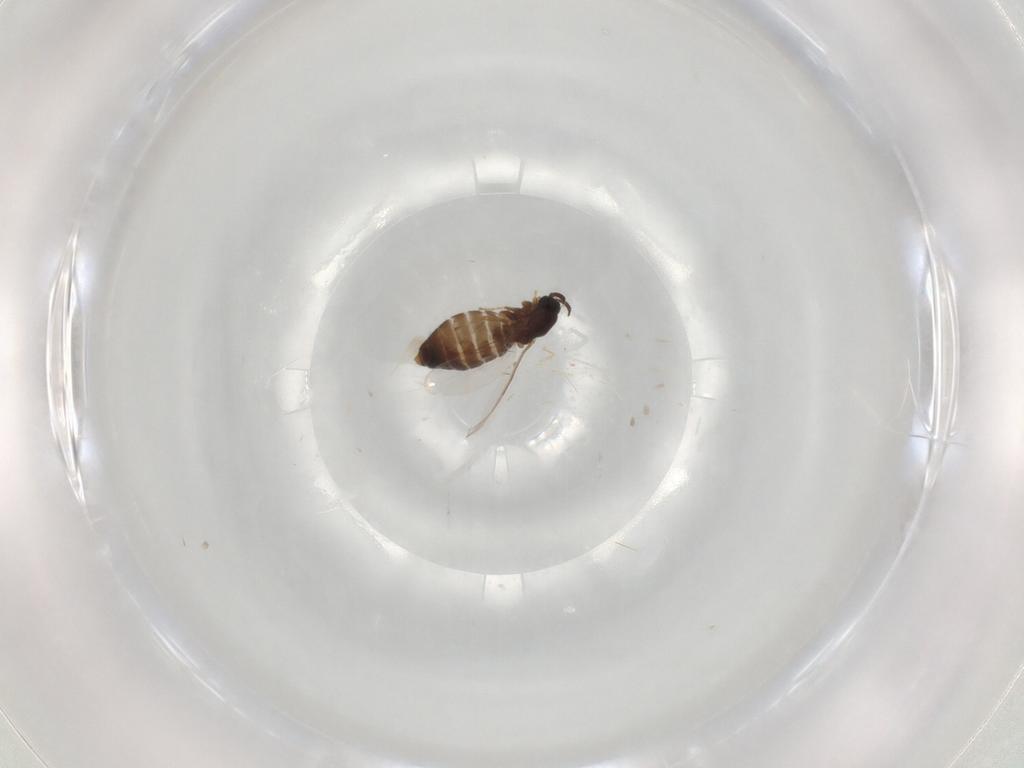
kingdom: Animalia
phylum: Arthropoda
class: Insecta
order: Diptera
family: Scatopsidae
